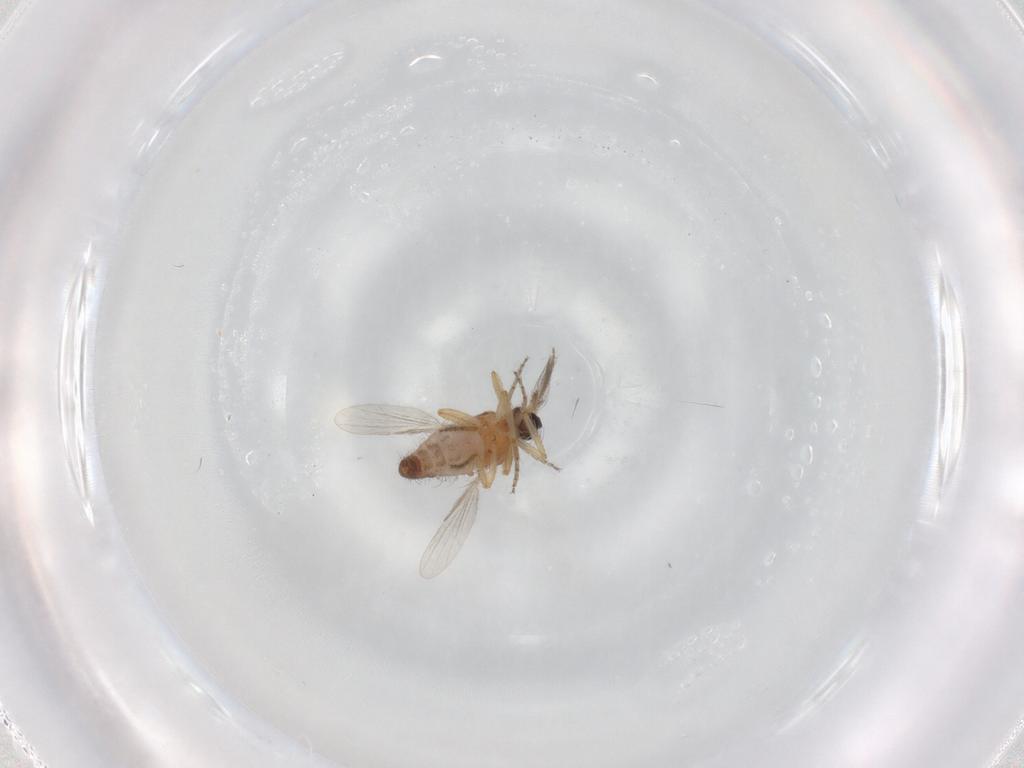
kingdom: Animalia
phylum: Arthropoda
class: Insecta
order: Diptera
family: Ceratopogonidae
